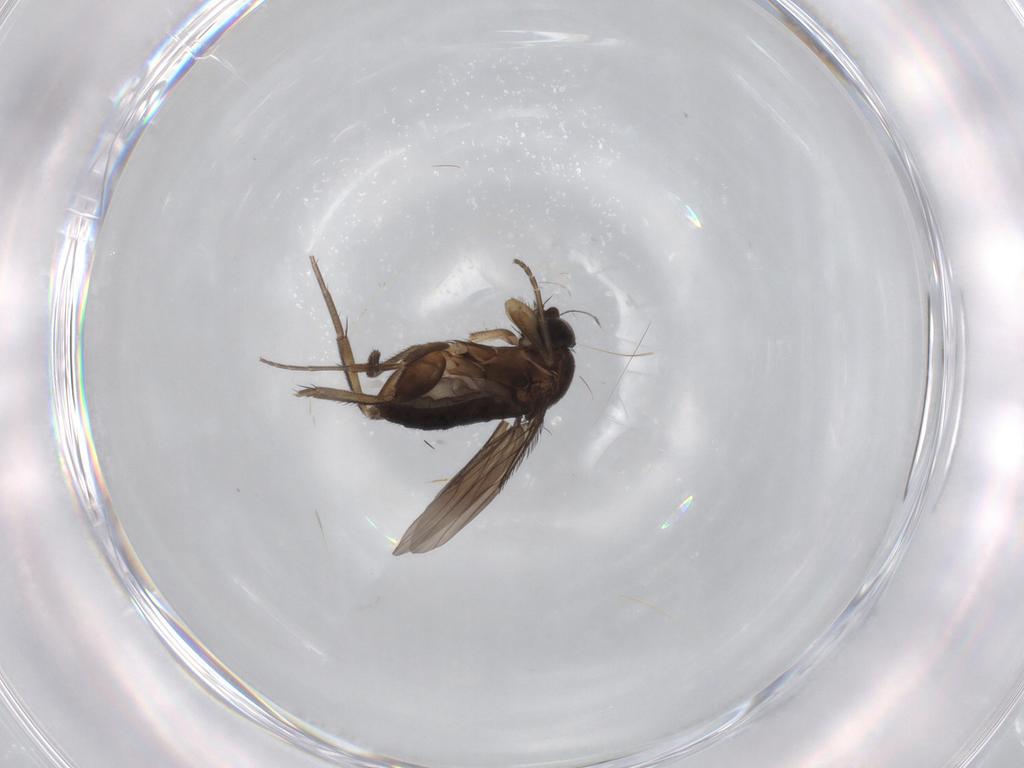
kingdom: Animalia
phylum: Arthropoda
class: Insecta
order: Diptera
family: Phoridae
